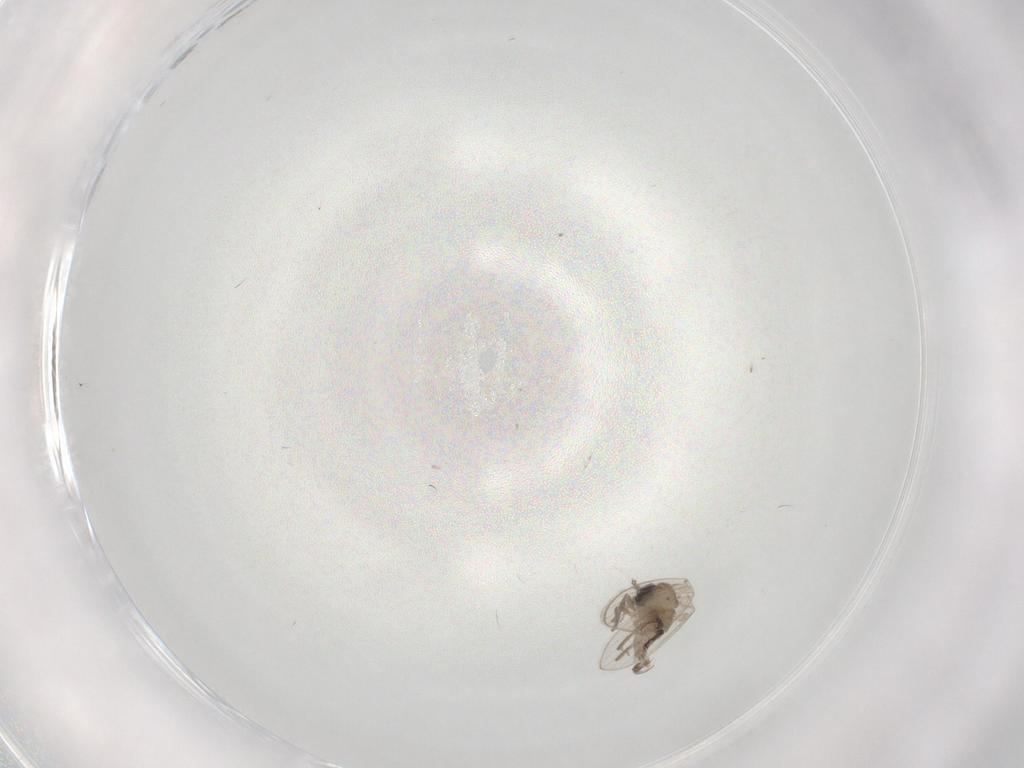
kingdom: Animalia
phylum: Arthropoda
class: Insecta
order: Diptera
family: Psychodidae
